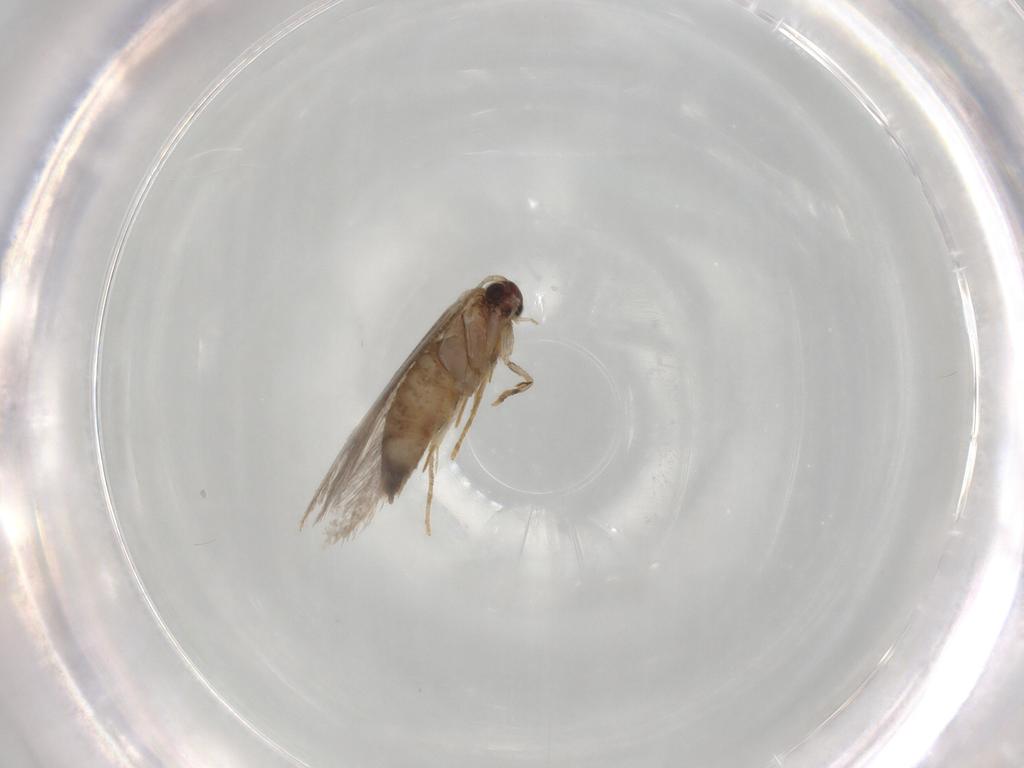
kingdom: Animalia
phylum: Arthropoda
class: Insecta
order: Lepidoptera
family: Tineidae
